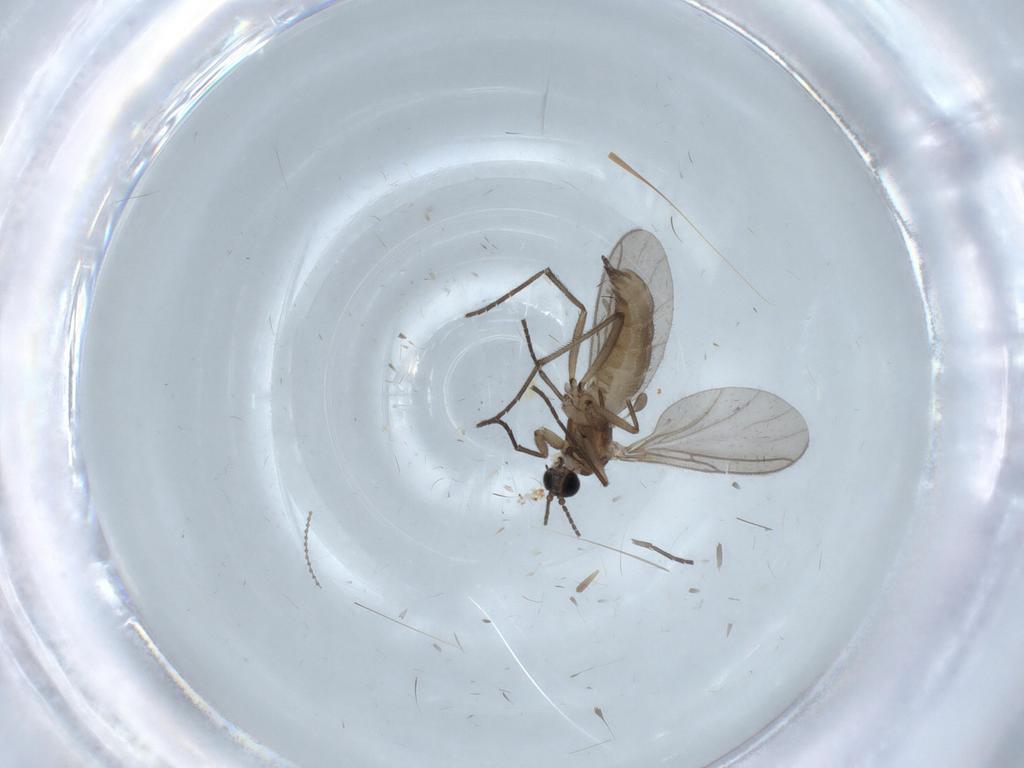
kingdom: Animalia
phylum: Arthropoda
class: Insecta
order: Diptera
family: Limoniidae
